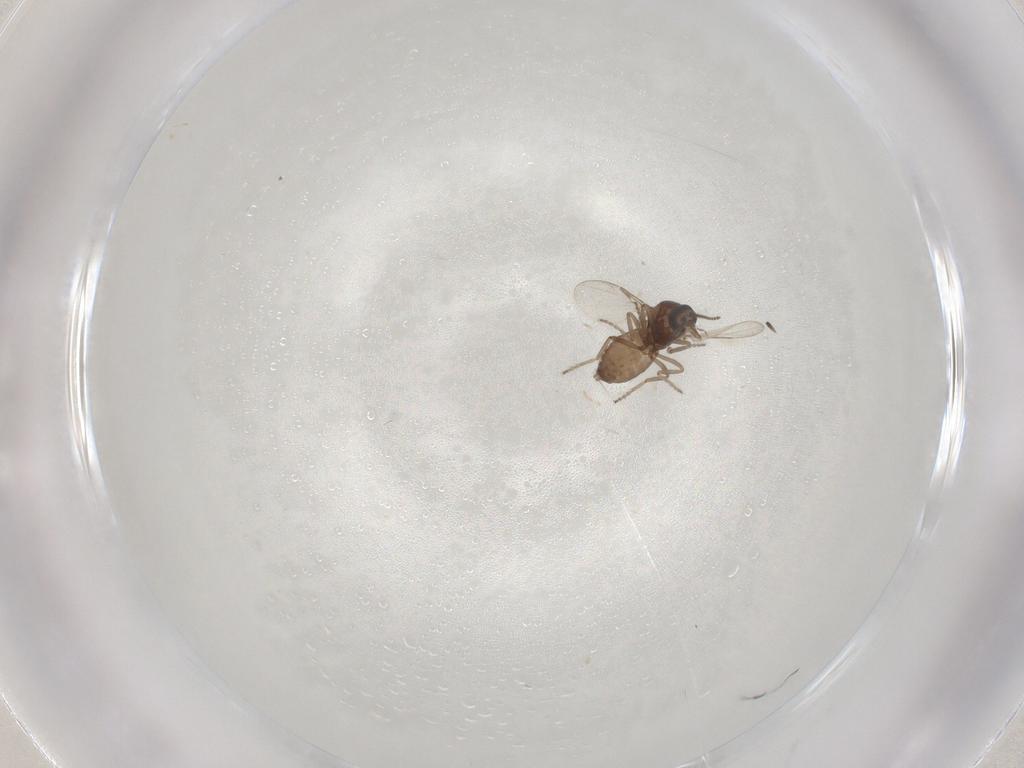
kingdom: Animalia
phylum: Arthropoda
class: Insecta
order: Diptera
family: Ceratopogonidae
